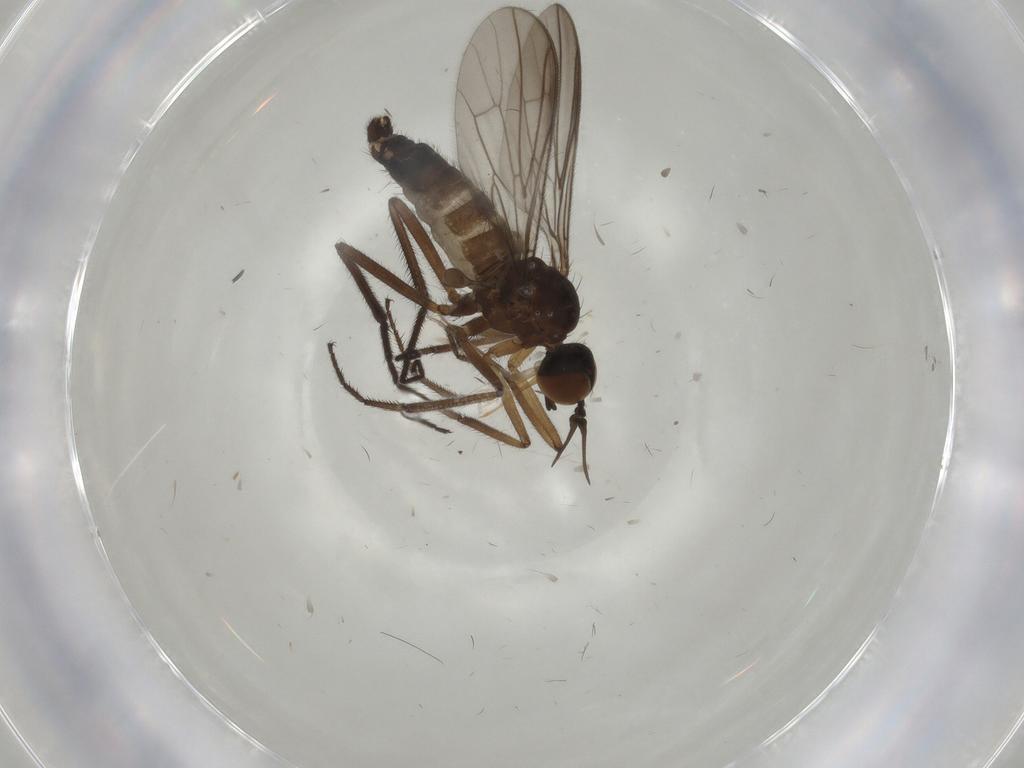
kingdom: Animalia
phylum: Arthropoda
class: Insecta
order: Diptera
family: Empididae
